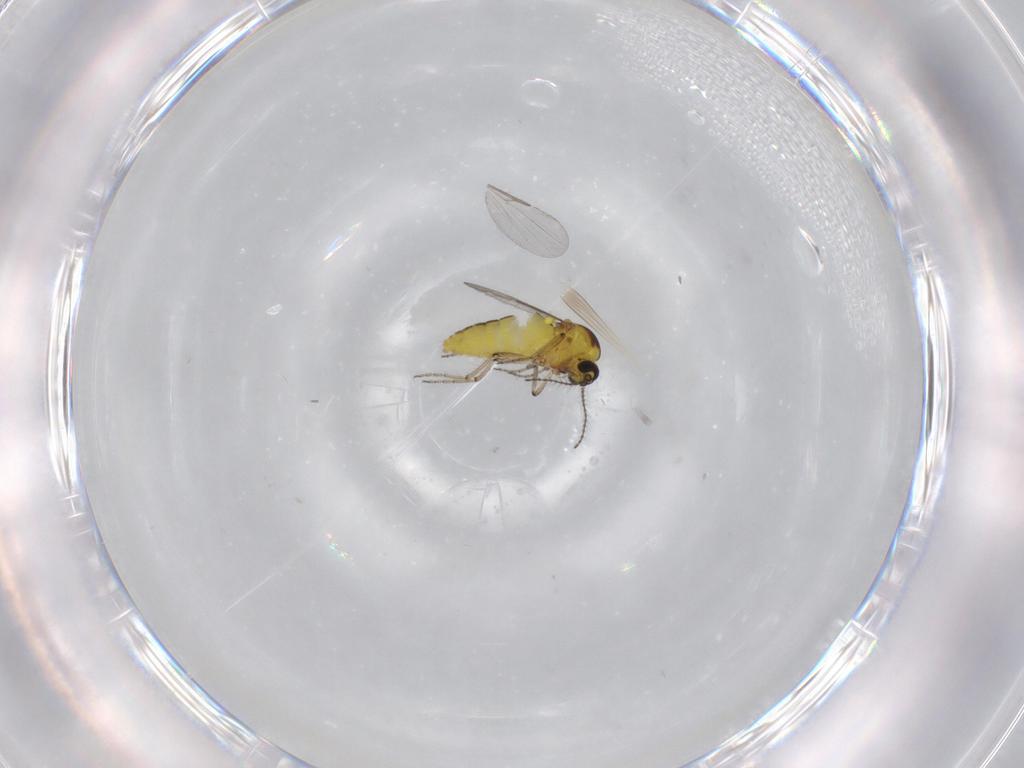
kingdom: Animalia
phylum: Arthropoda
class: Insecta
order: Diptera
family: Ceratopogonidae
